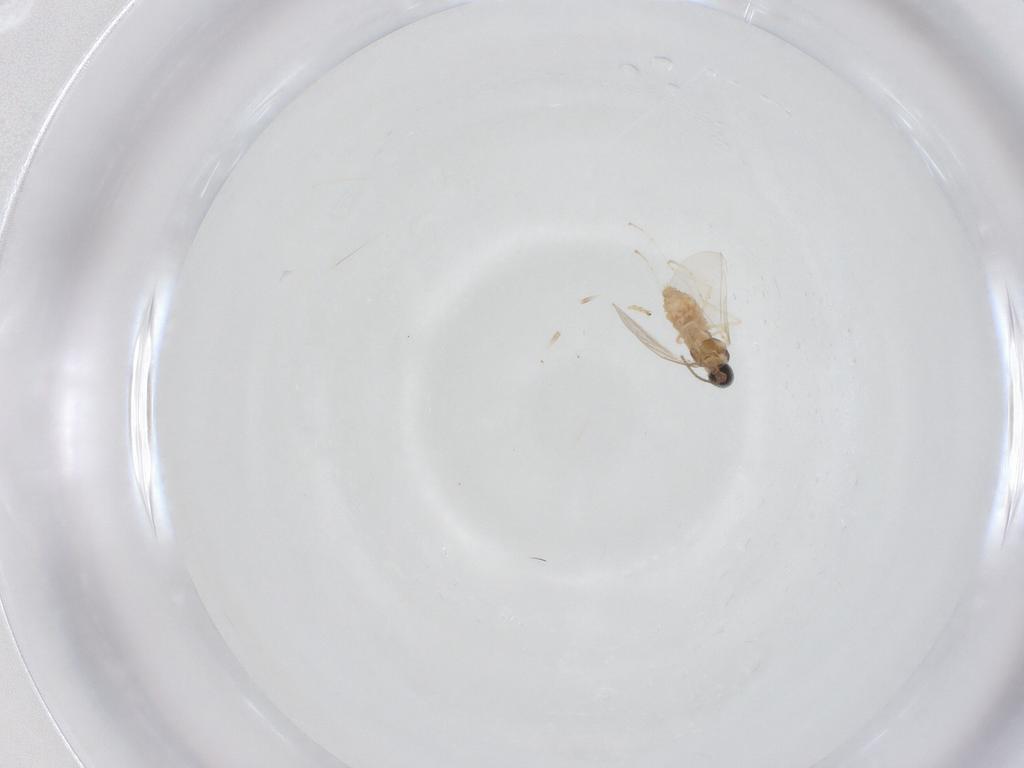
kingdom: Animalia
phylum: Arthropoda
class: Insecta
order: Diptera
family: Cecidomyiidae
